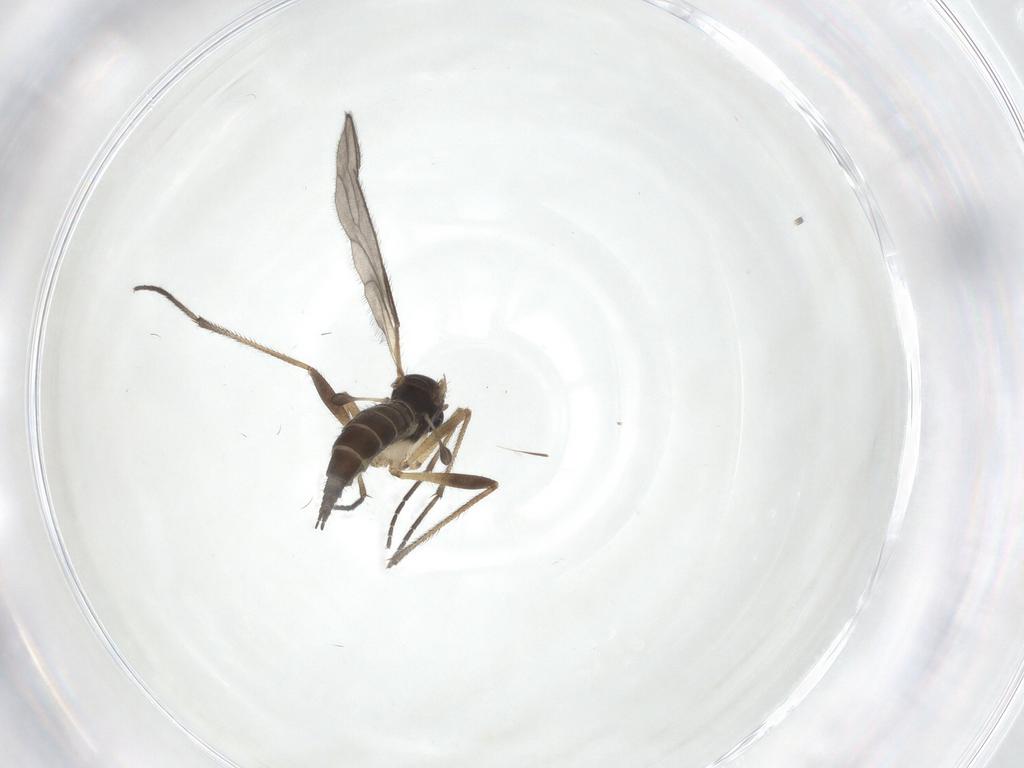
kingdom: Animalia
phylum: Arthropoda
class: Insecta
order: Diptera
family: Sciaridae
